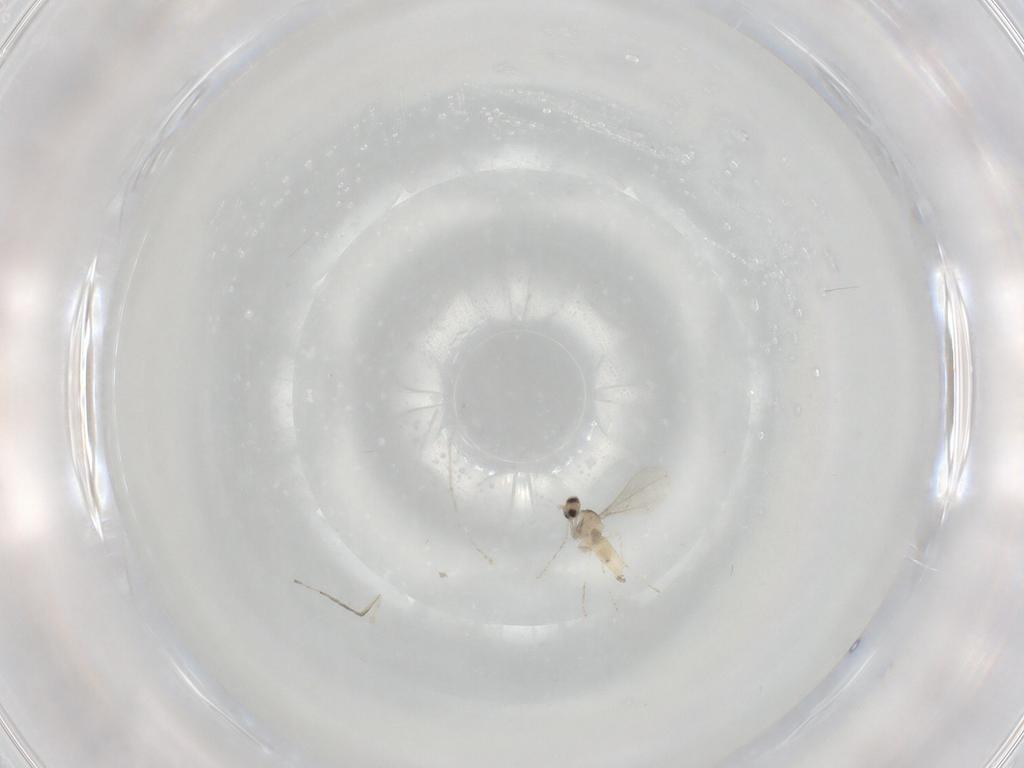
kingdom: Animalia
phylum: Arthropoda
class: Insecta
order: Diptera
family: Cecidomyiidae
